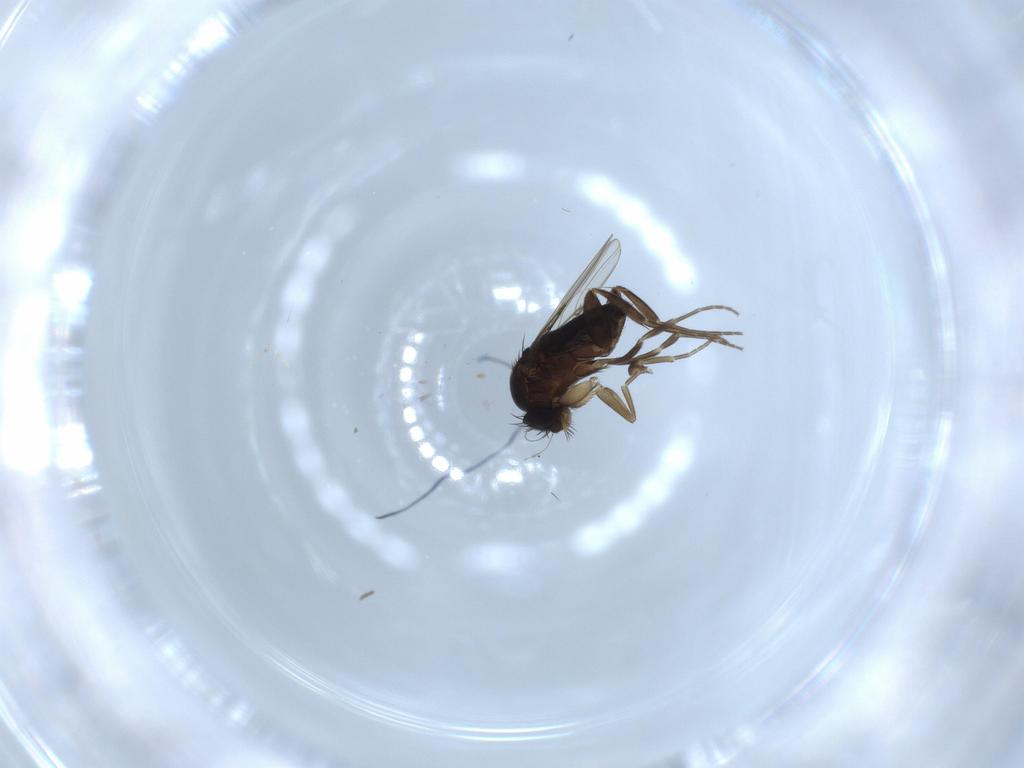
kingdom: Animalia
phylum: Arthropoda
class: Insecta
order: Diptera
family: Phoridae
